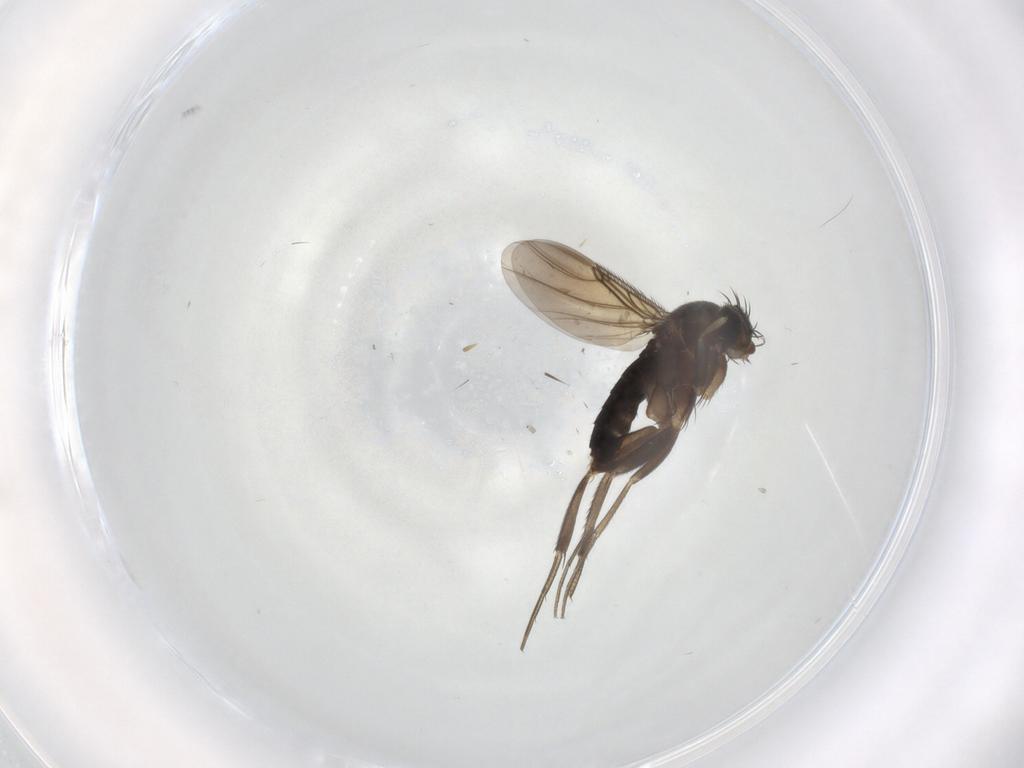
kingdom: Animalia
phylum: Arthropoda
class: Insecta
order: Diptera
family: Phoridae
